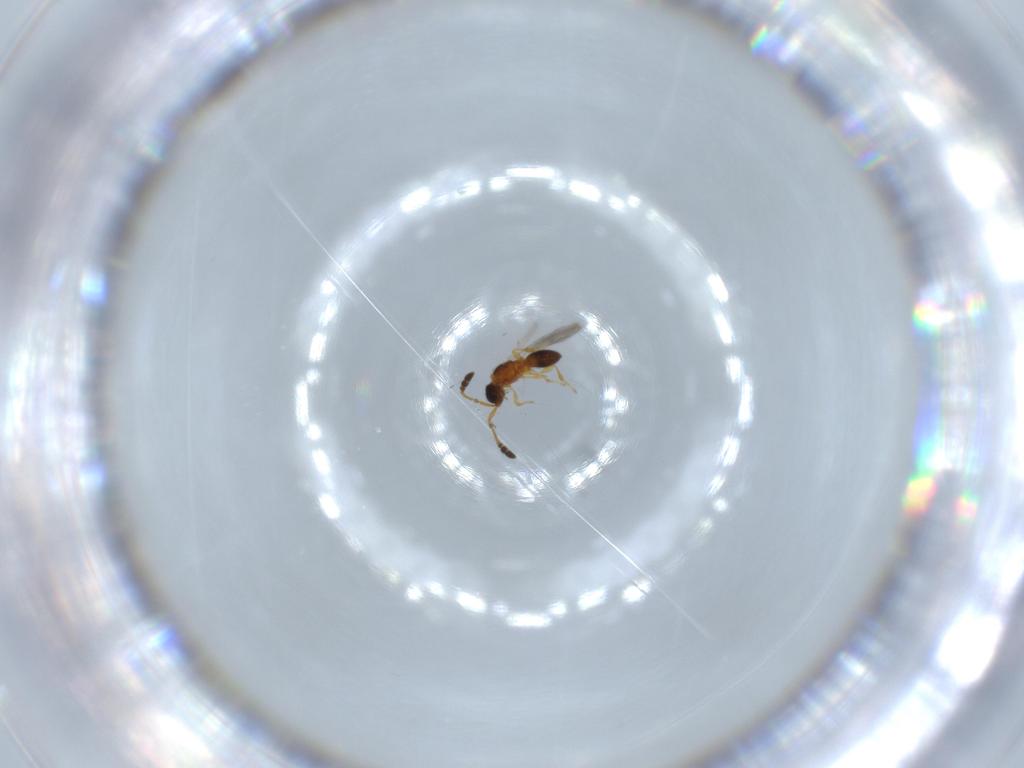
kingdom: Animalia
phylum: Arthropoda
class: Insecta
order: Hymenoptera
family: Diapriidae
